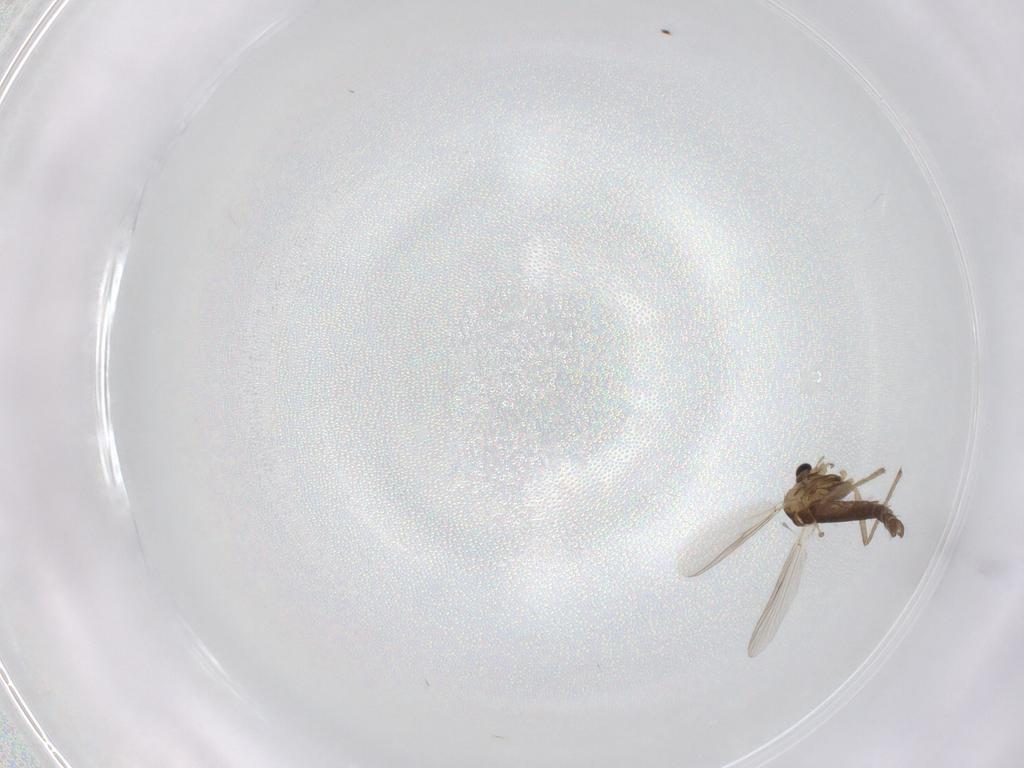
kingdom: Animalia
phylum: Arthropoda
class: Insecta
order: Diptera
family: Chironomidae
